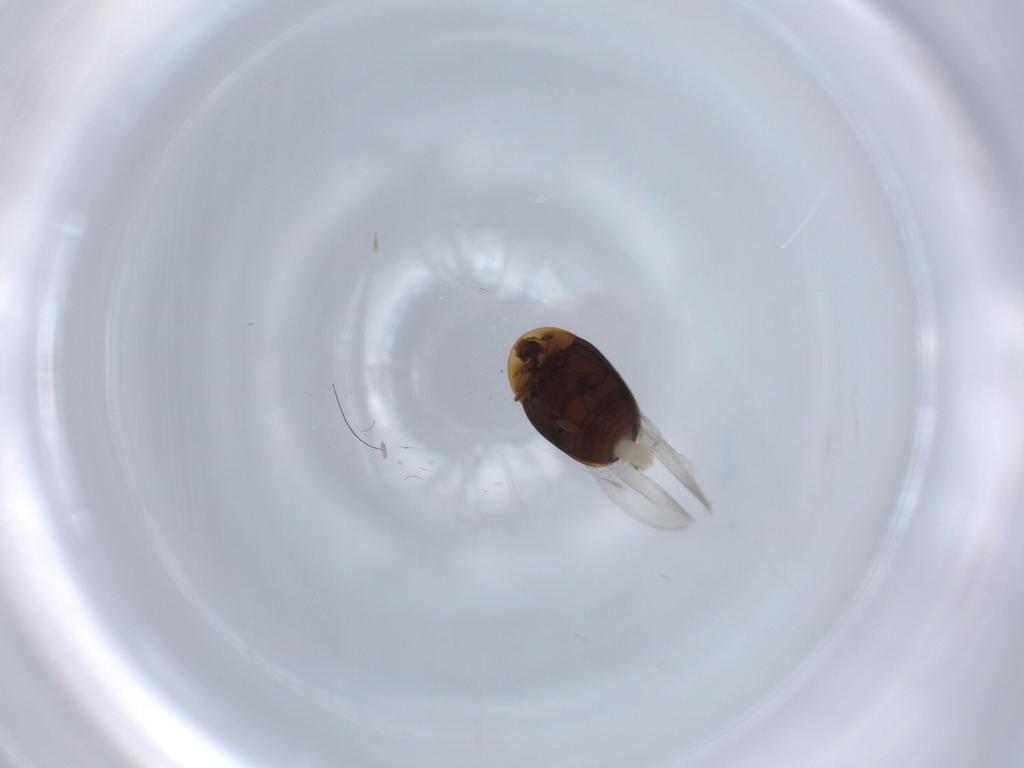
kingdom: Animalia
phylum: Arthropoda
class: Insecta
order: Coleoptera
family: Corylophidae
